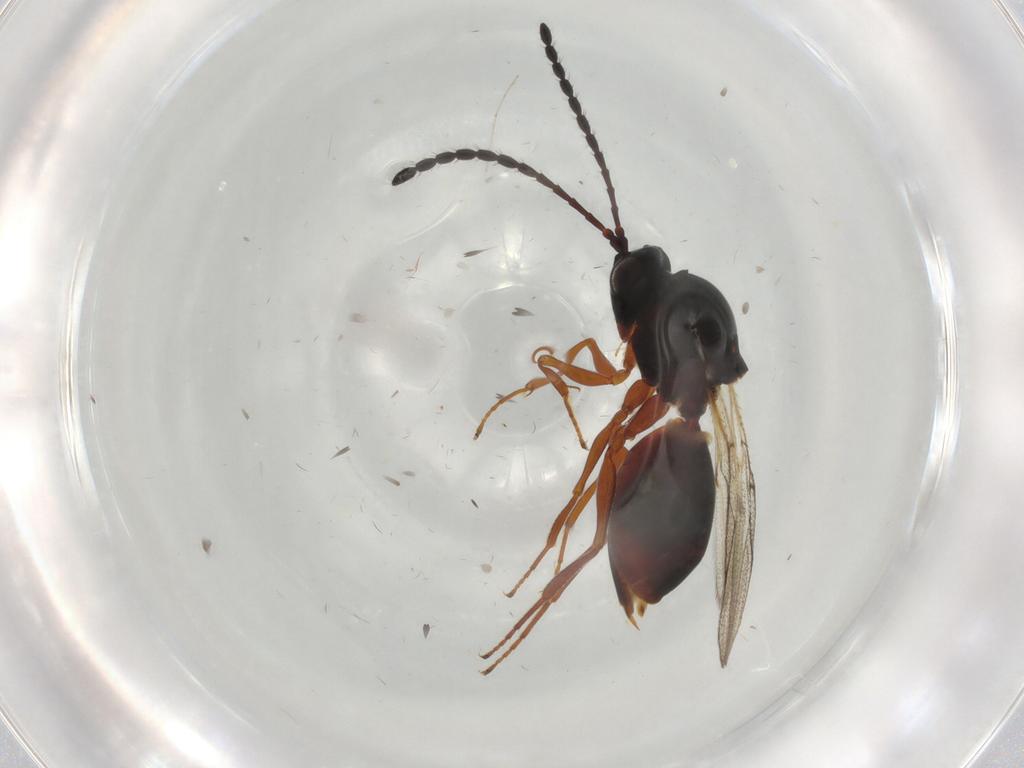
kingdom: Animalia
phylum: Arthropoda
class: Insecta
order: Hymenoptera
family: Figitidae
